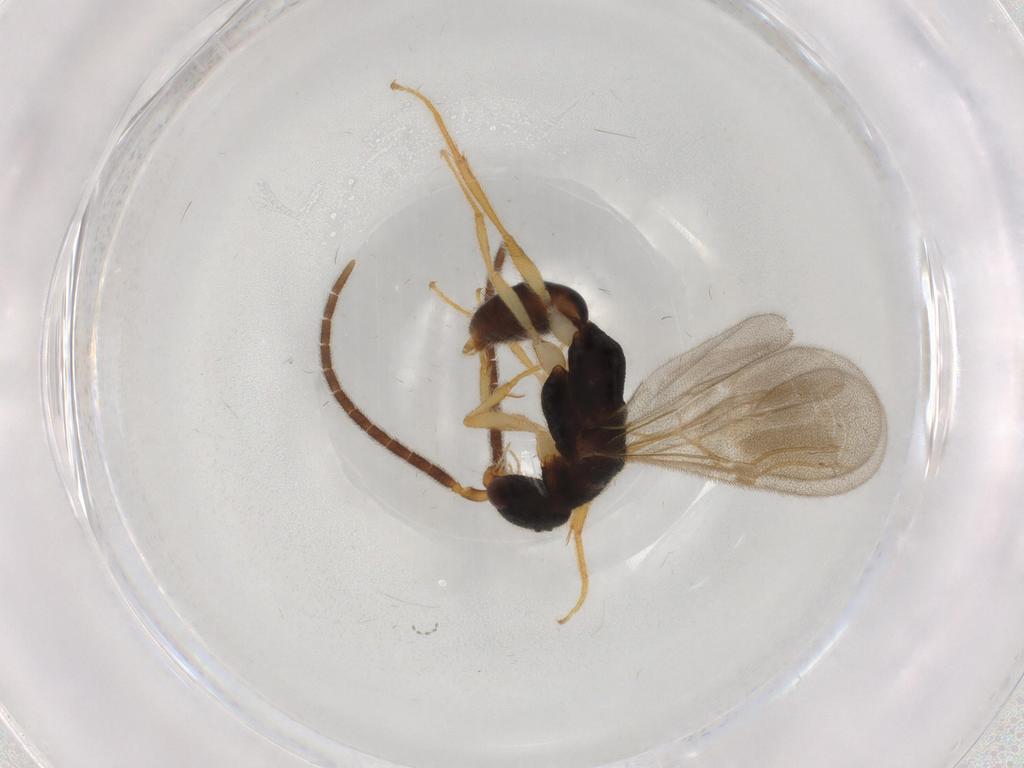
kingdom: Animalia
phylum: Arthropoda
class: Insecta
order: Hymenoptera
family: Bethylidae
